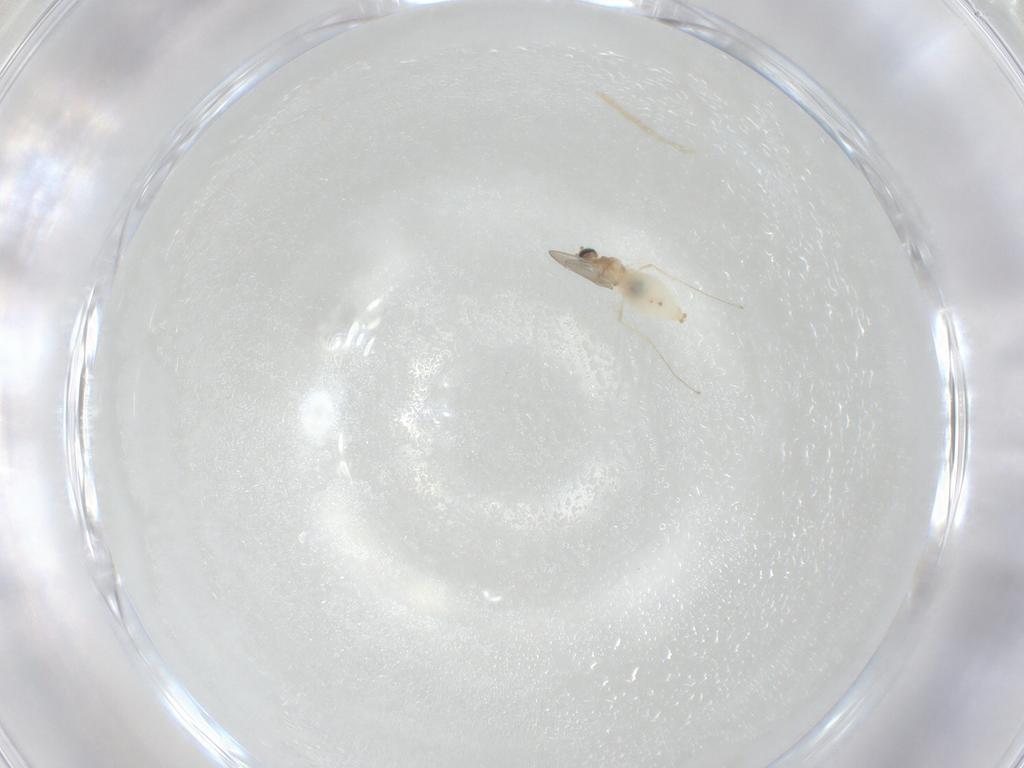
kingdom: Animalia
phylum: Arthropoda
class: Insecta
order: Diptera
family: Cecidomyiidae
